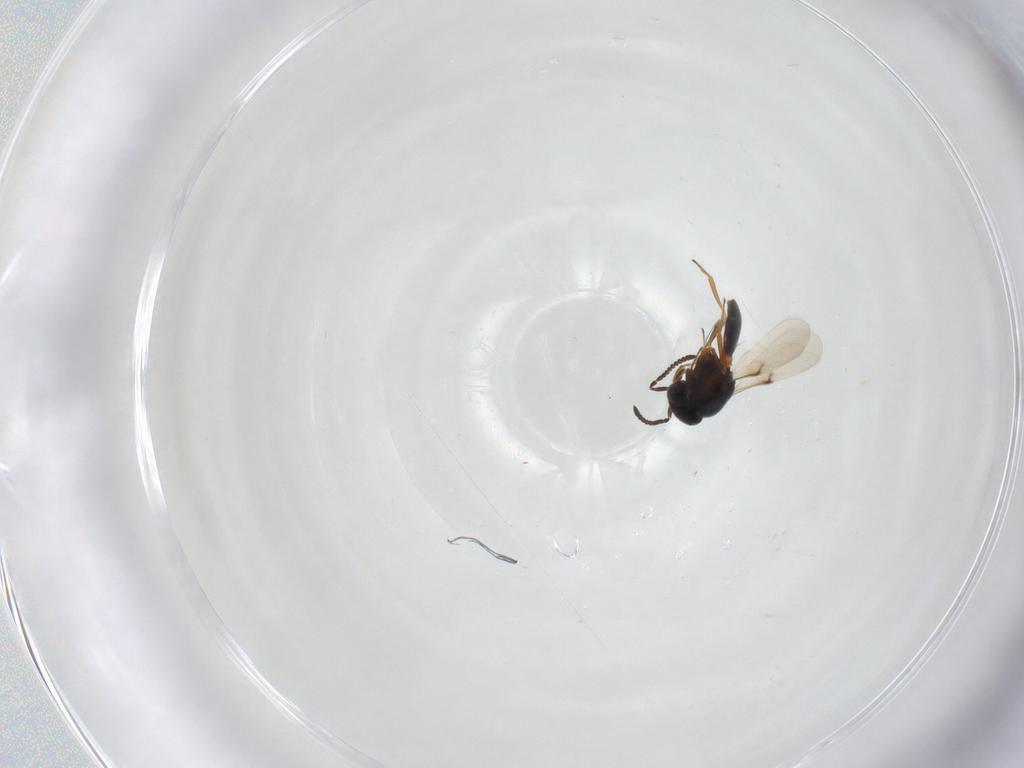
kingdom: Animalia
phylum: Arthropoda
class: Arachnida
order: Araneae
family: Pholcidae
